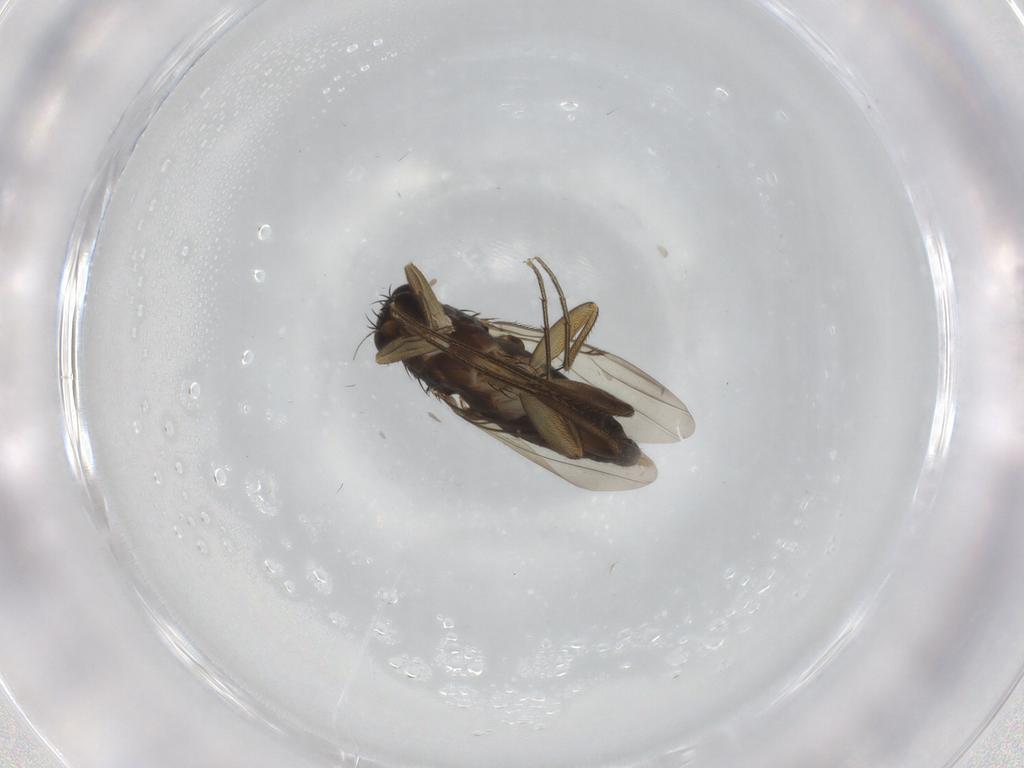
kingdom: Animalia
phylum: Arthropoda
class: Insecta
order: Diptera
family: Phoridae
